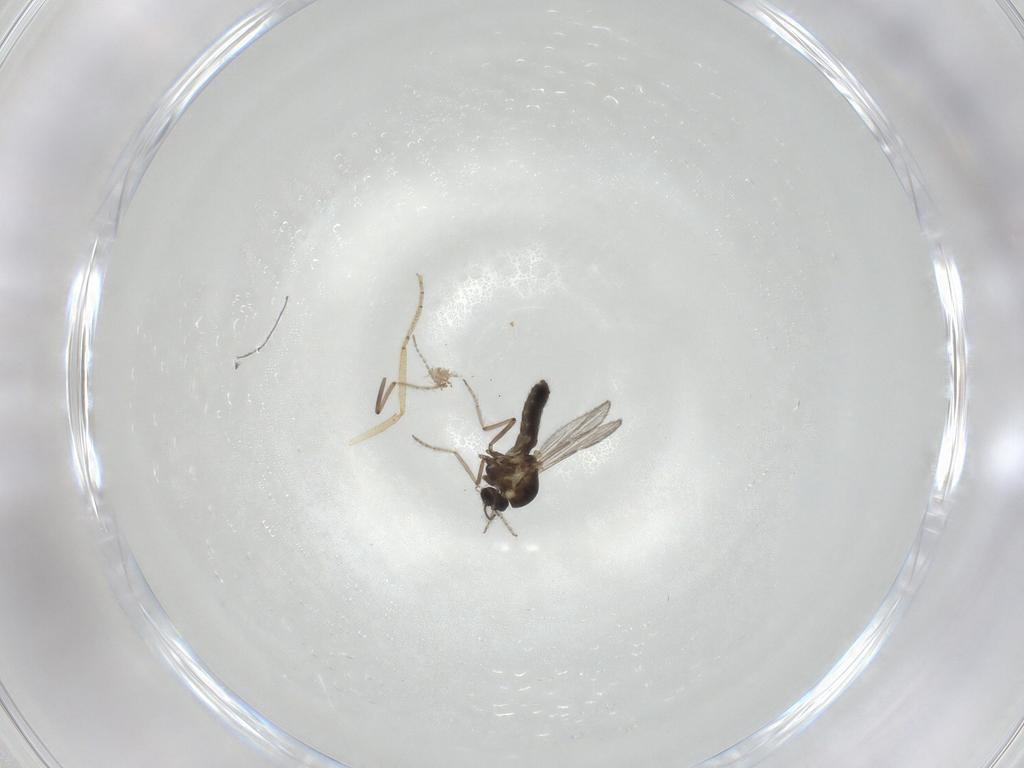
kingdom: Animalia
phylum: Arthropoda
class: Insecta
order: Diptera
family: Ceratopogonidae
